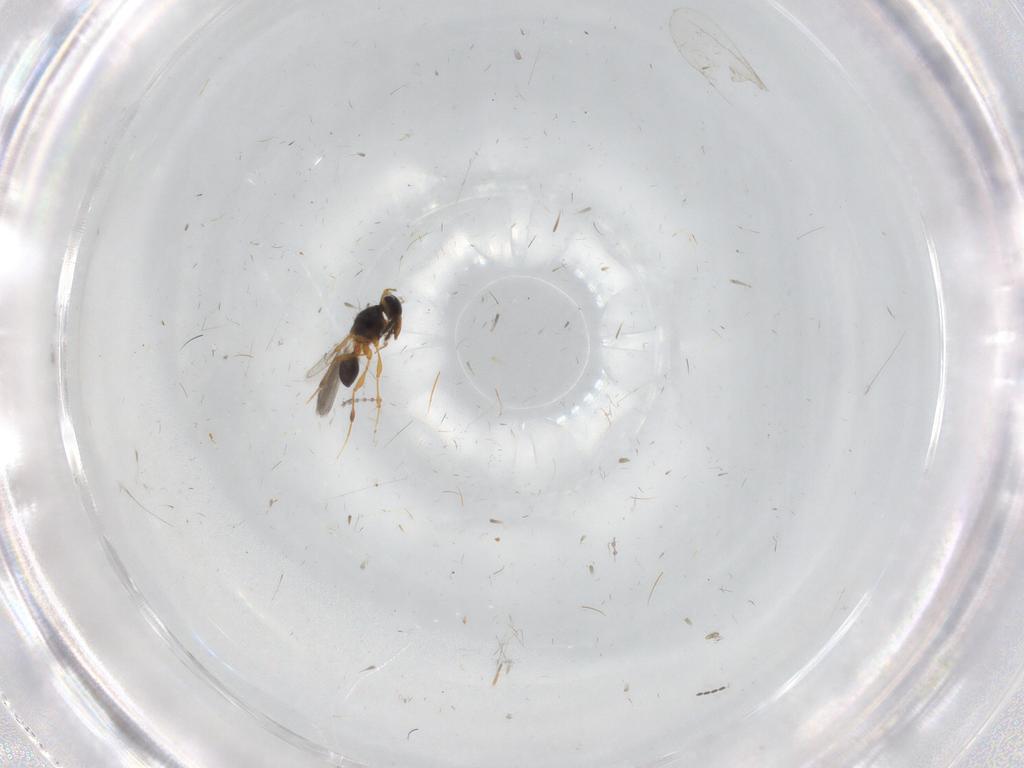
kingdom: Animalia
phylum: Arthropoda
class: Insecta
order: Hymenoptera
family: Platygastridae
